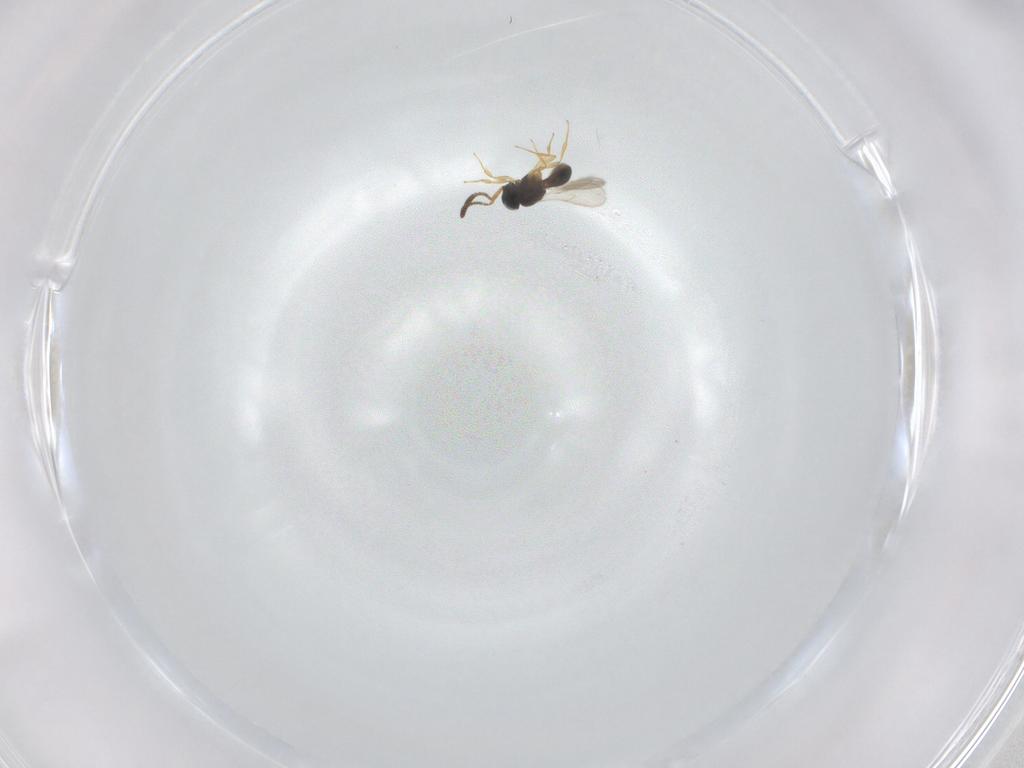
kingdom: Animalia
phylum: Arthropoda
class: Insecta
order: Hymenoptera
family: Scelionidae
